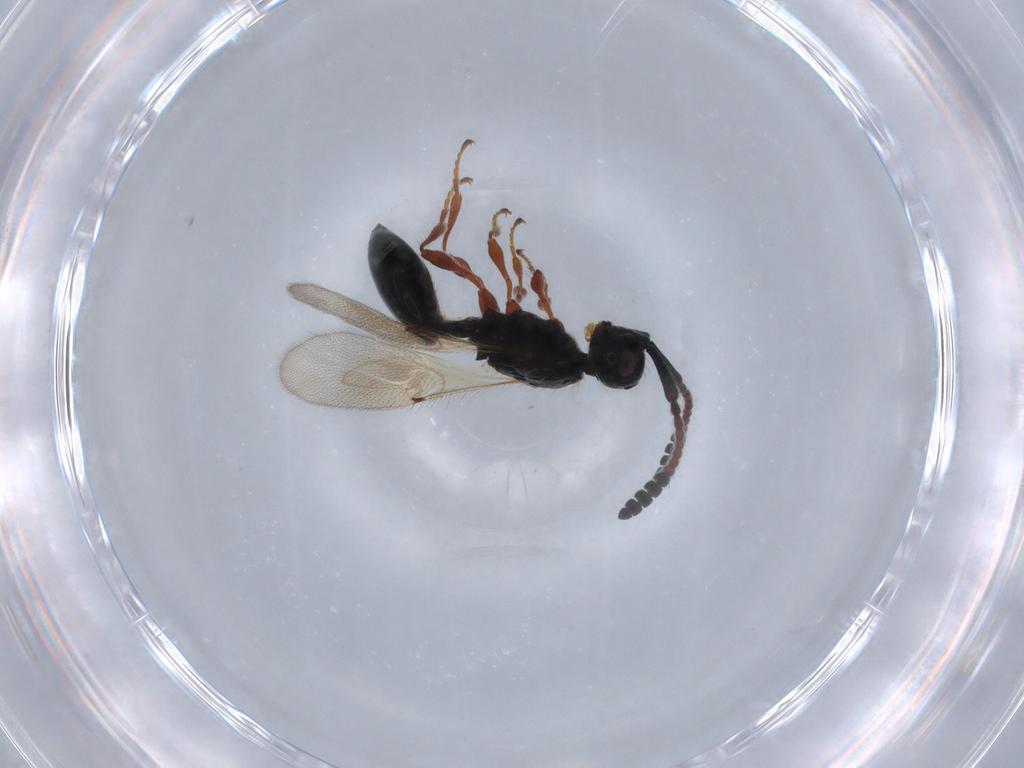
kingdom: Animalia
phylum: Arthropoda
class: Insecta
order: Hymenoptera
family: Diapriidae
